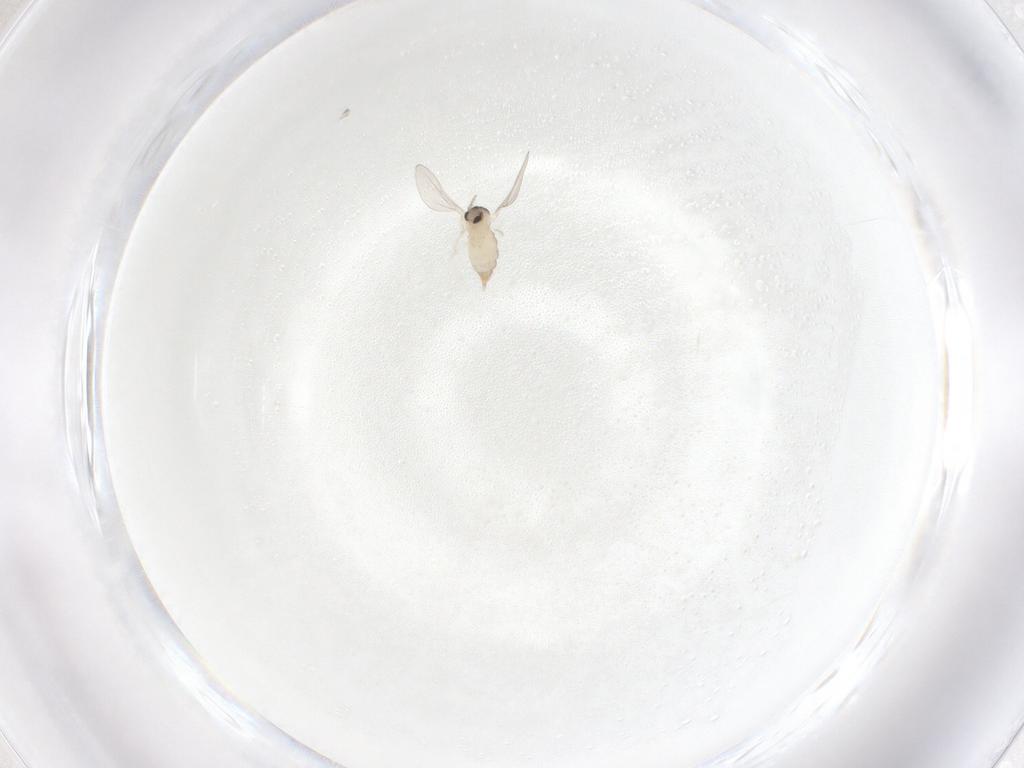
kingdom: Animalia
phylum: Arthropoda
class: Insecta
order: Diptera
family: Cecidomyiidae
